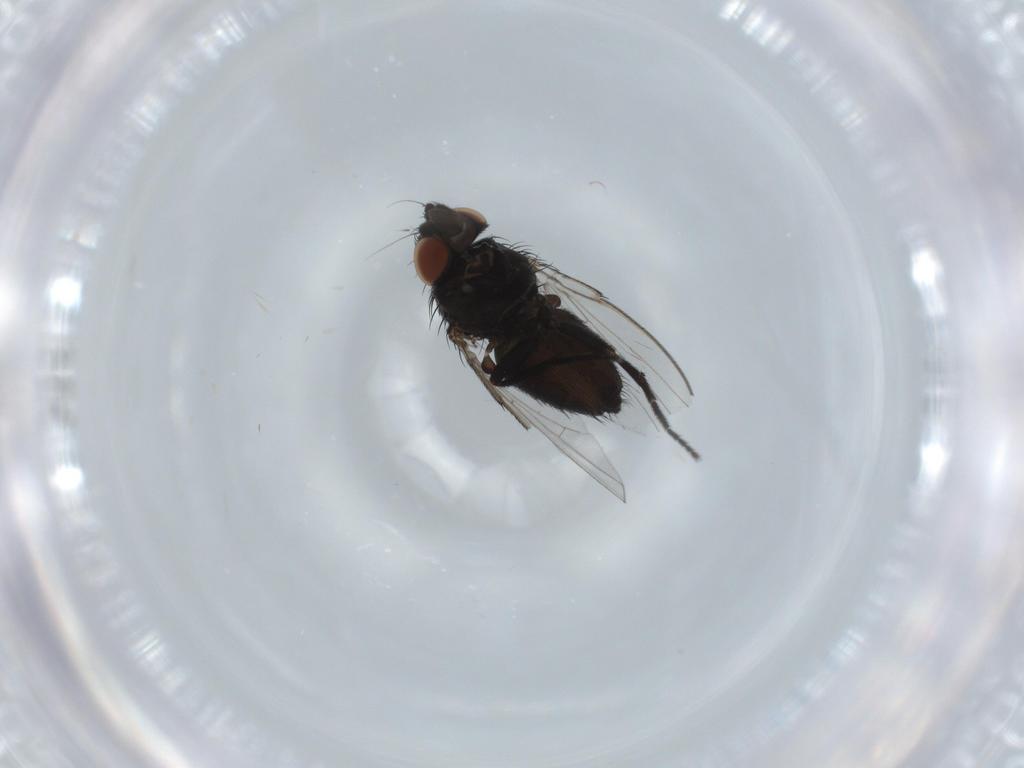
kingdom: Animalia
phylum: Arthropoda
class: Insecta
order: Diptera
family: Milichiidae
